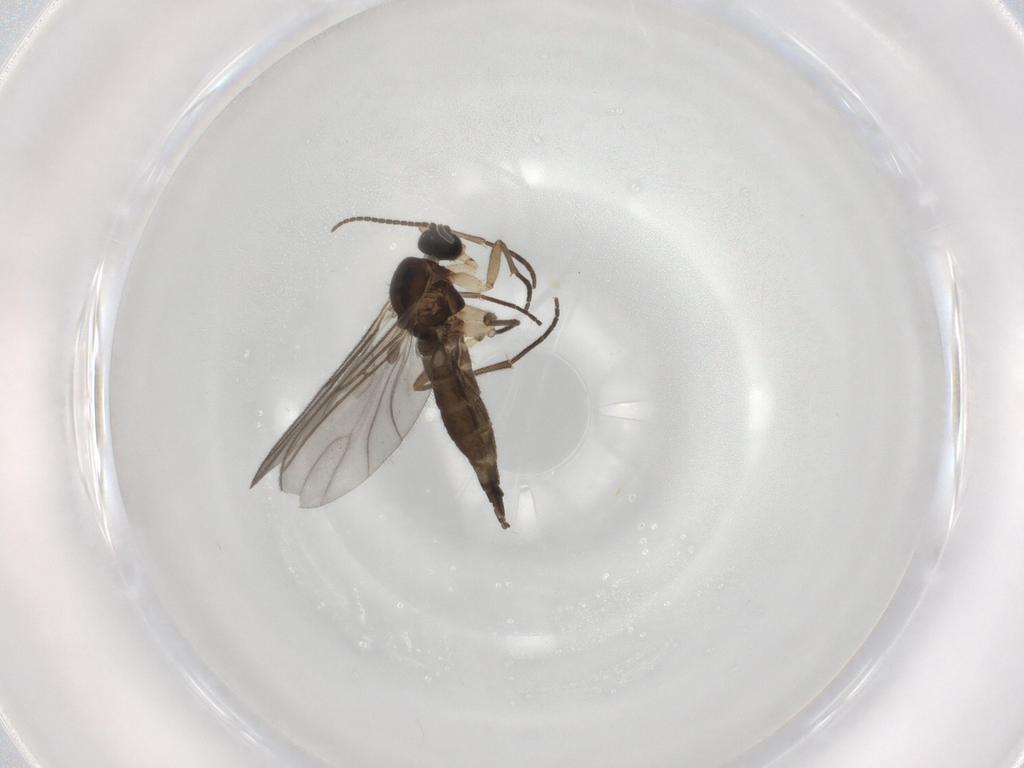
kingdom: Animalia
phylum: Arthropoda
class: Insecta
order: Diptera
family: Sciaridae
